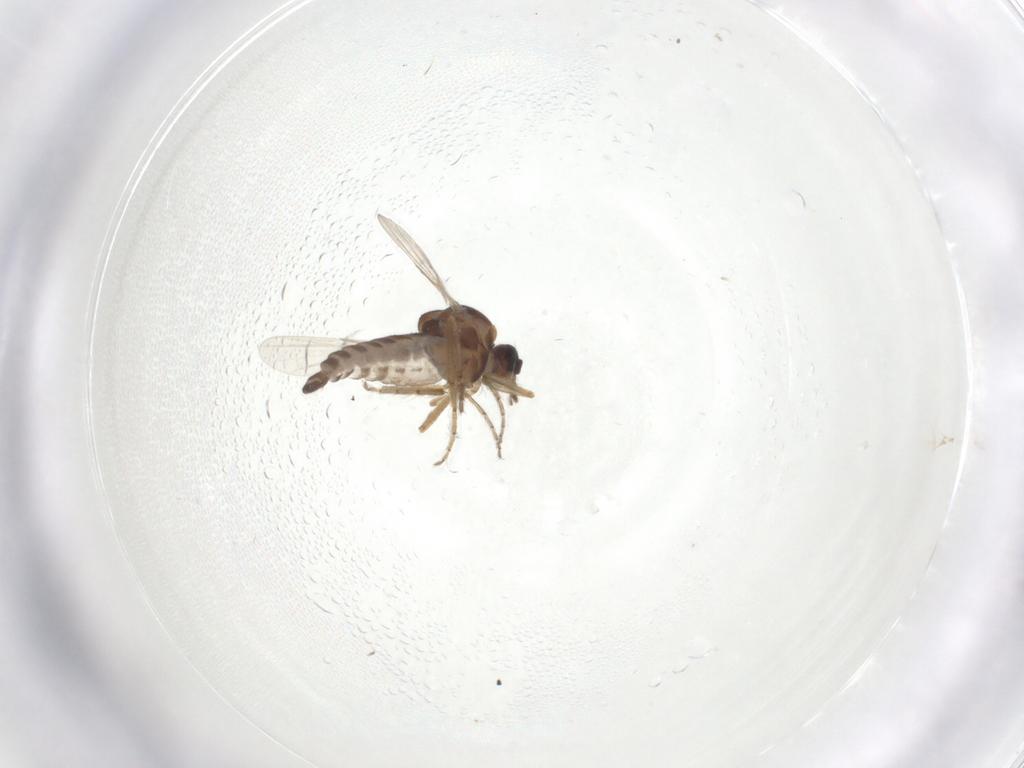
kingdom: Animalia
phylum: Arthropoda
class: Insecta
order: Diptera
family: Ceratopogonidae
